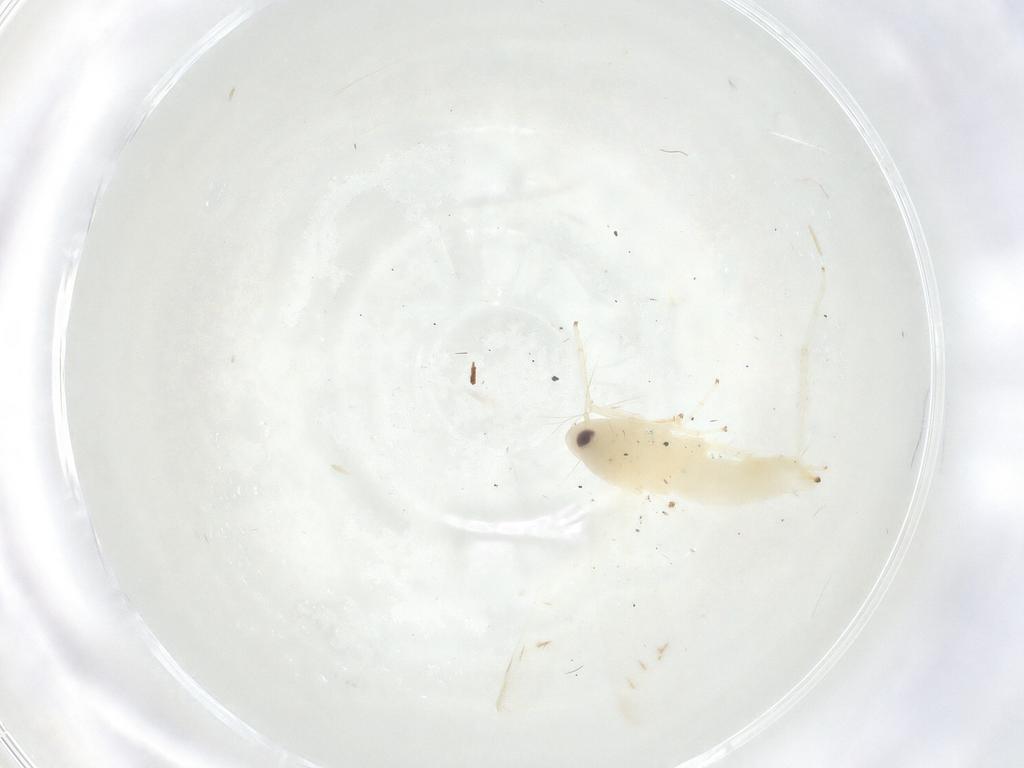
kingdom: Animalia
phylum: Arthropoda
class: Insecta
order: Hemiptera
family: Cicadellidae
